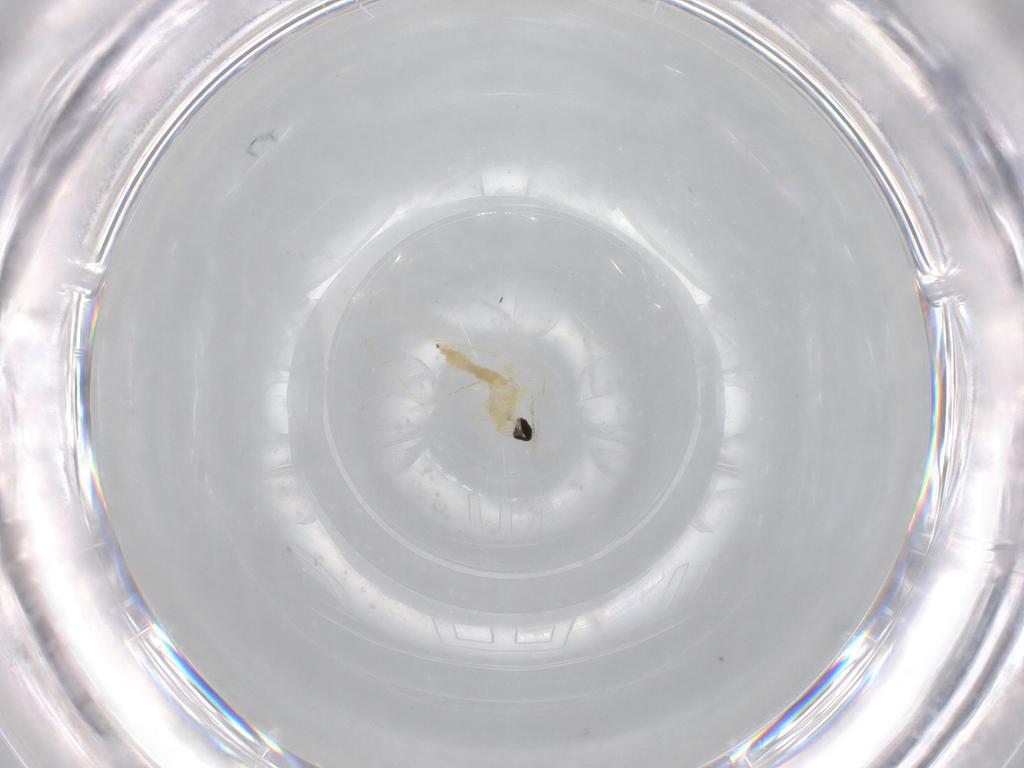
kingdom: Animalia
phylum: Arthropoda
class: Insecta
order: Diptera
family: Cecidomyiidae
